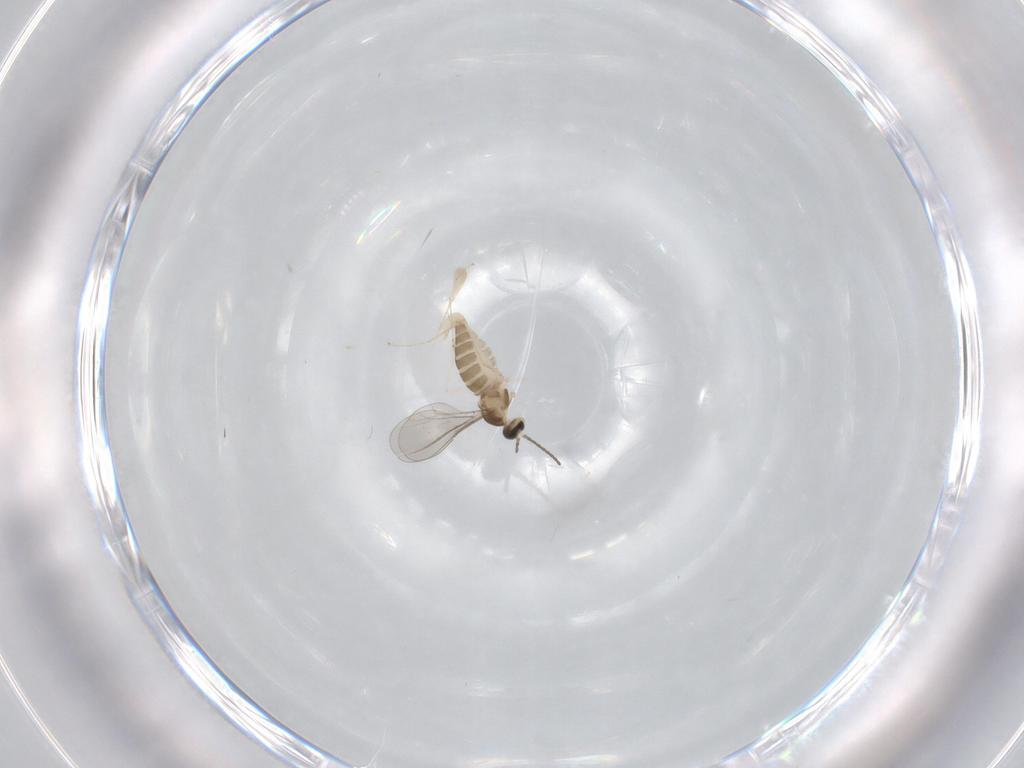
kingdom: Animalia
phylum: Arthropoda
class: Insecta
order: Diptera
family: Cecidomyiidae
